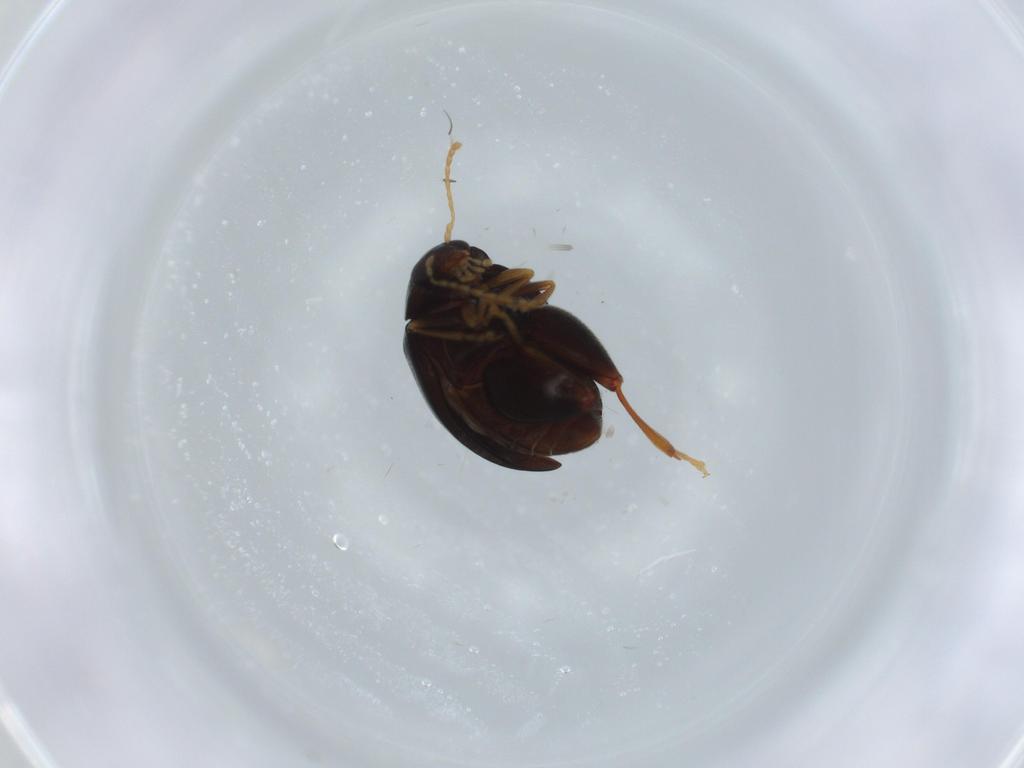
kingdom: Animalia
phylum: Arthropoda
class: Insecta
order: Coleoptera
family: Chrysomelidae
